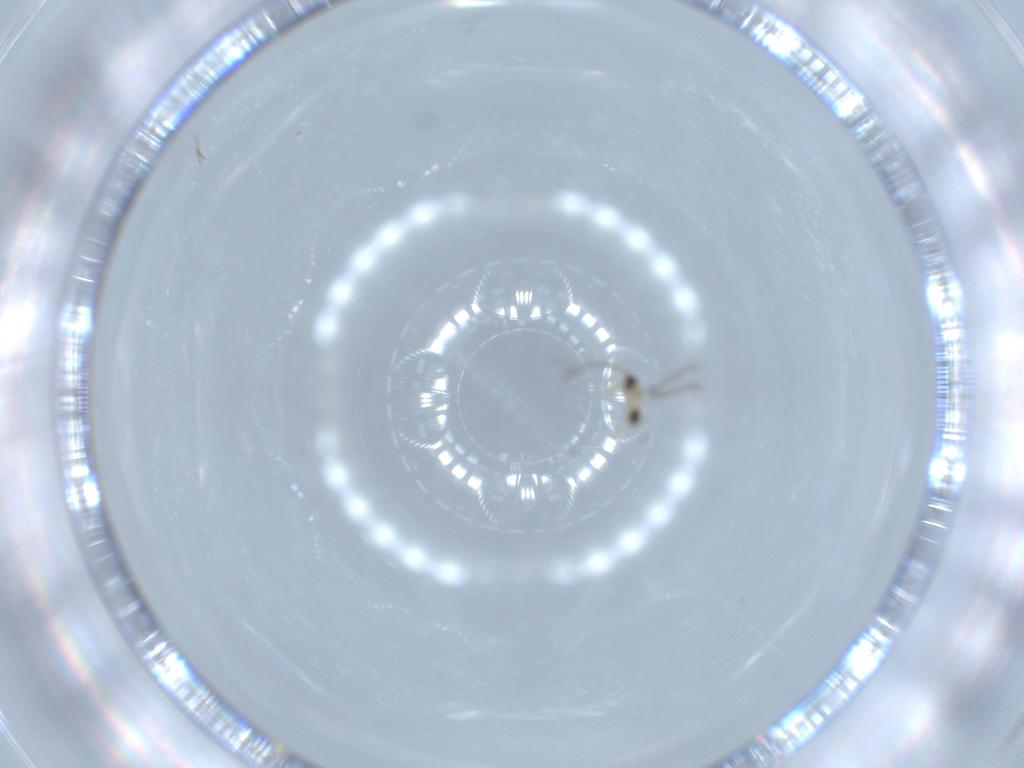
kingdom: Animalia
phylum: Arthropoda
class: Insecta
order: Hymenoptera
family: Mymaridae
